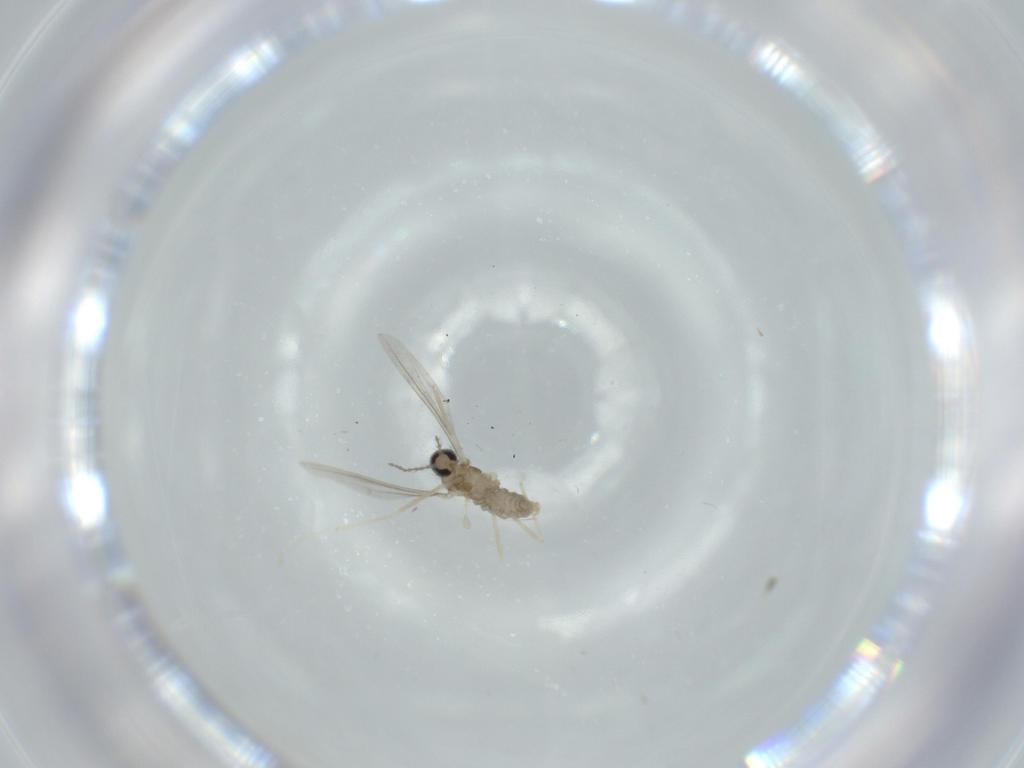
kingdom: Animalia
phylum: Arthropoda
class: Insecta
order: Diptera
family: Cecidomyiidae
